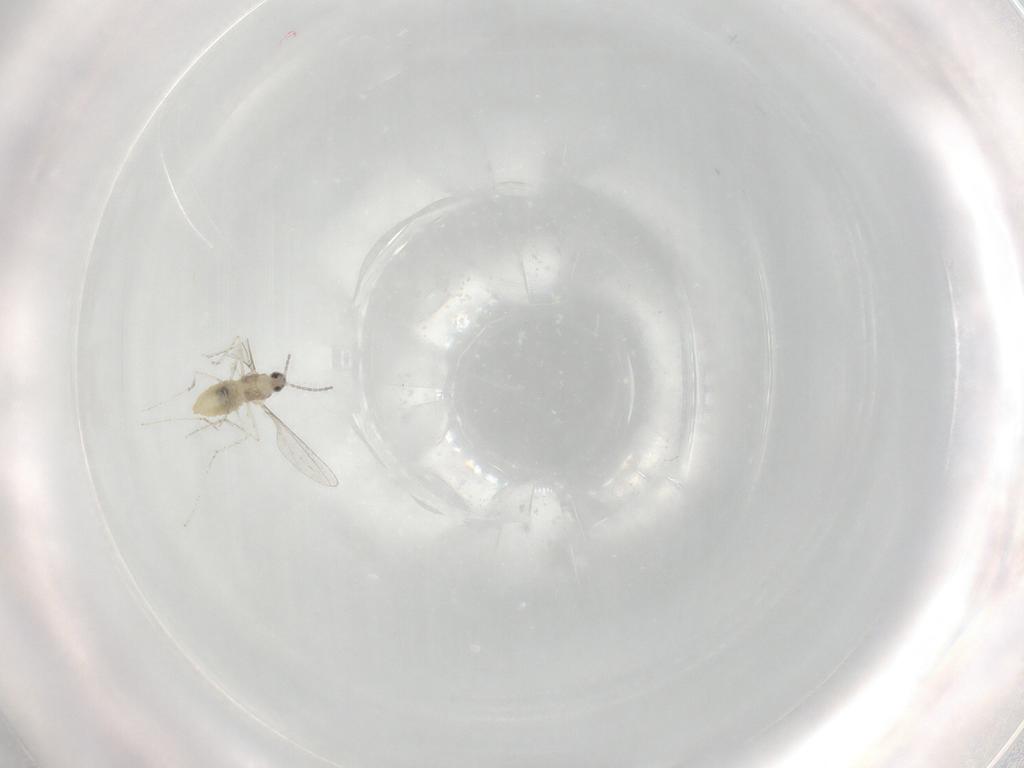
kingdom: Animalia
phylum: Arthropoda
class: Insecta
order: Diptera
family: Cecidomyiidae
